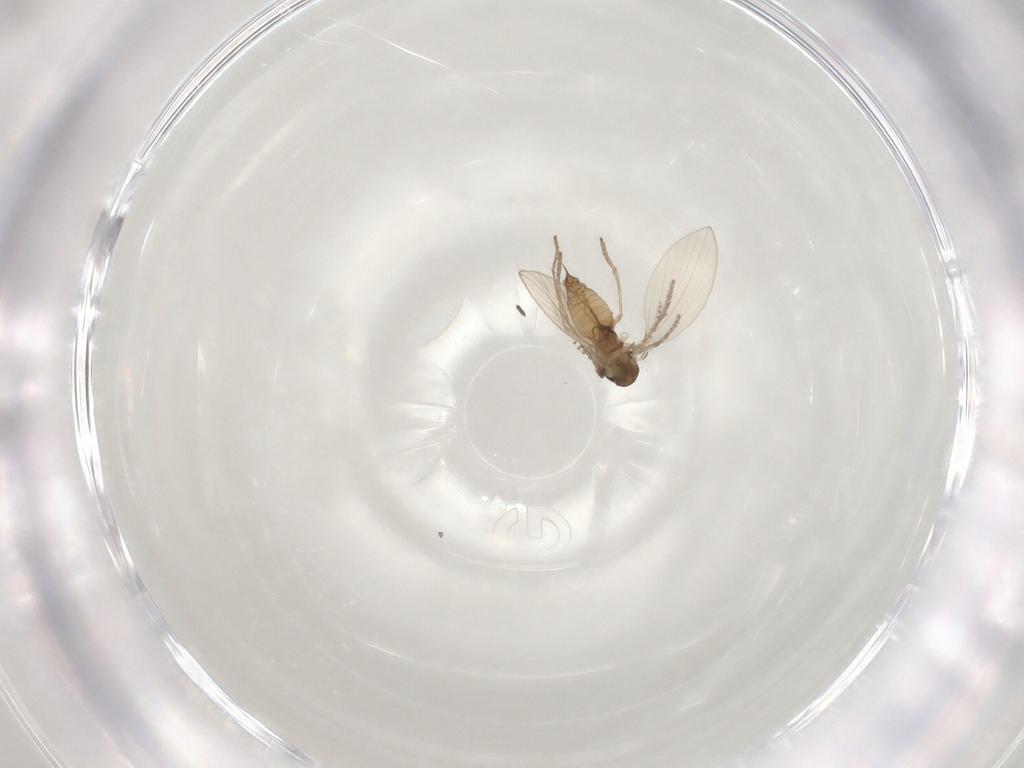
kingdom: Animalia
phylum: Arthropoda
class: Insecta
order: Diptera
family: Psychodidae
